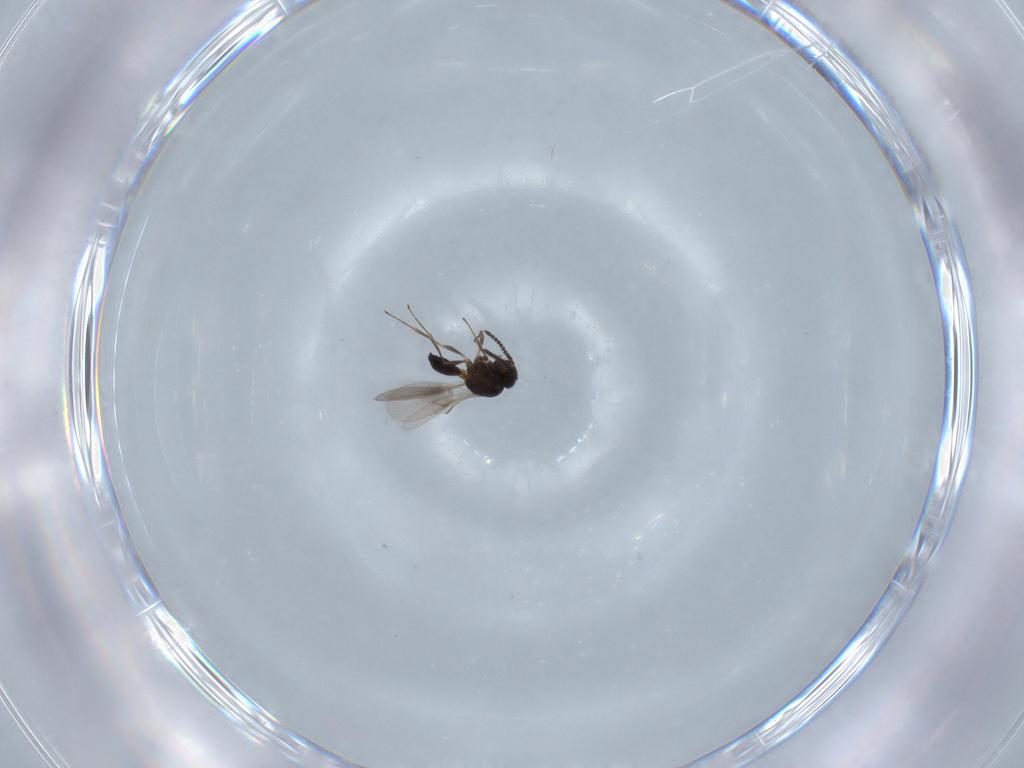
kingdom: Animalia
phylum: Arthropoda
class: Insecta
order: Hymenoptera
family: Scelionidae
